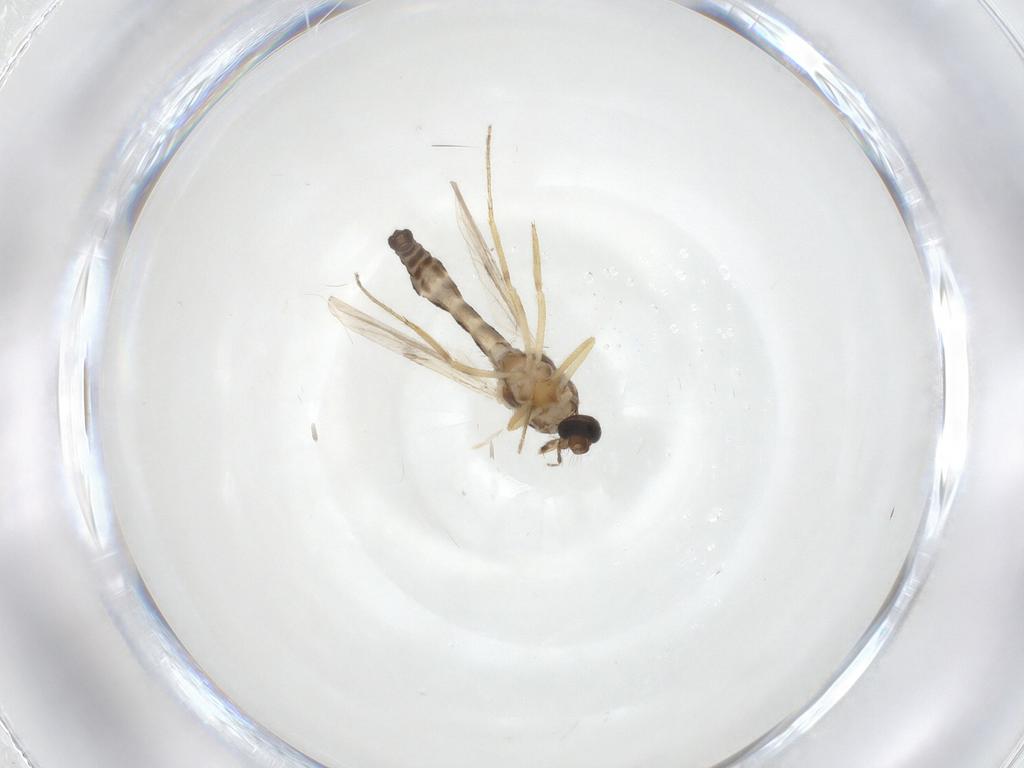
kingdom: Animalia
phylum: Arthropoda
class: Insecta
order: Diptera
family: Ceratopogonidae
